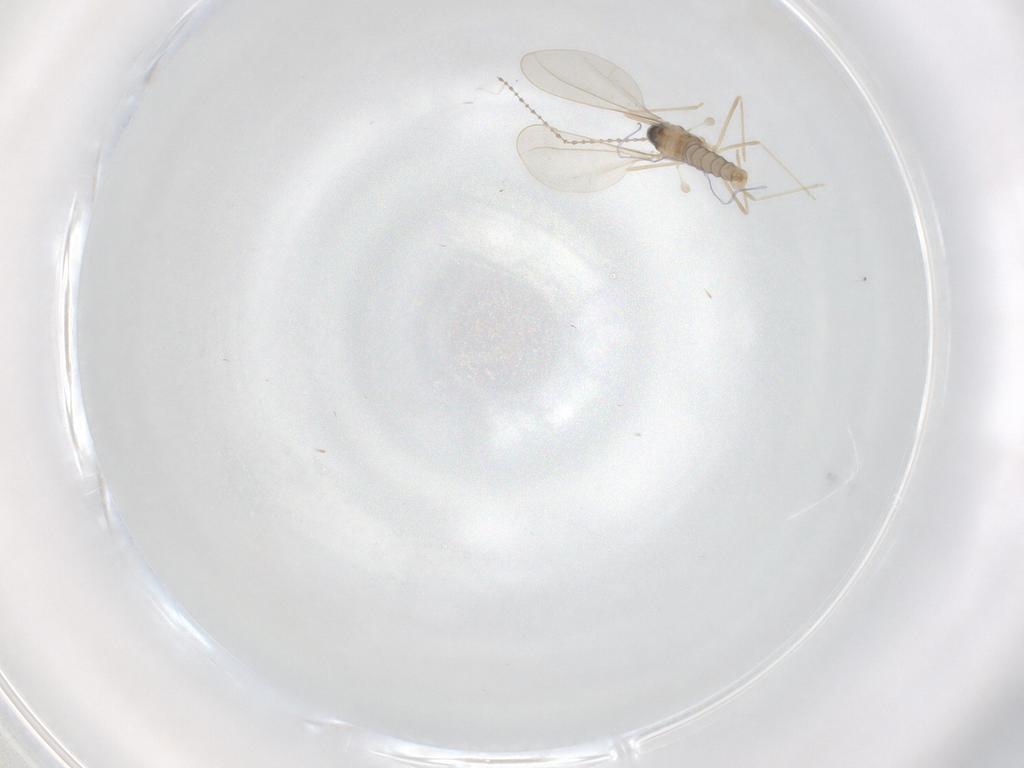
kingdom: Animalia
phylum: Arthropoda
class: Insecta
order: Diptera
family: Cecidomyiidae
